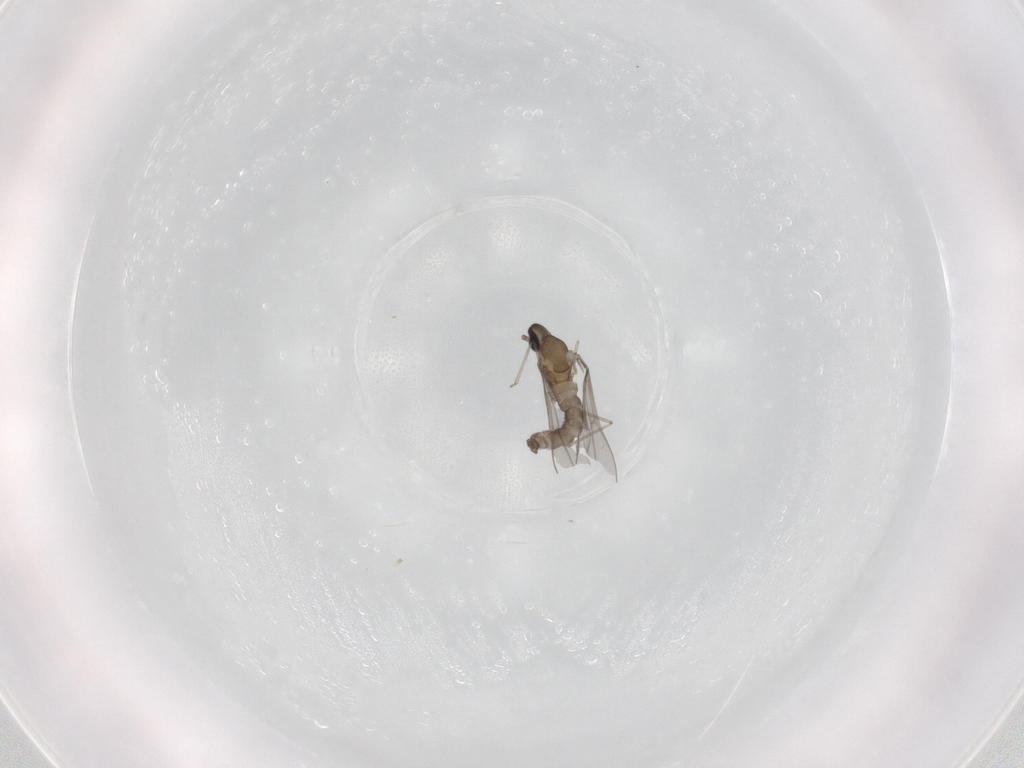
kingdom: Animalia
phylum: Arthropoda
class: Insecta
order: Diptera
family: Cecidomyiidae
